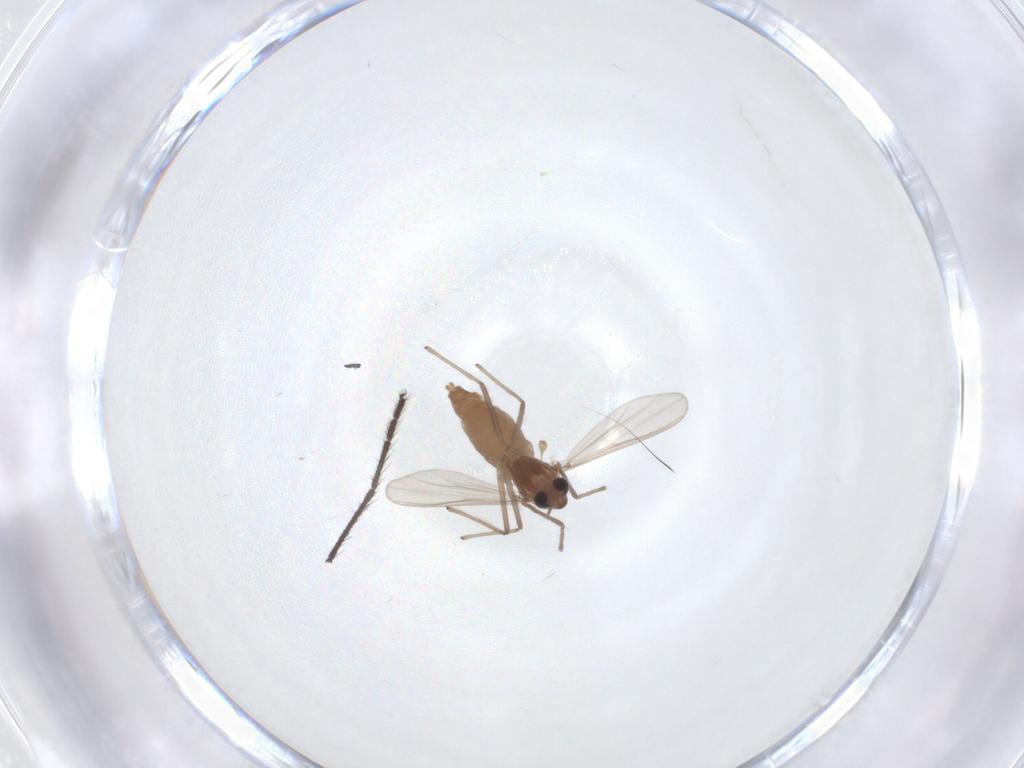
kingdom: Animalia
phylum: Arthropoda
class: Insecta
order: Diptera
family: Chironomidae
